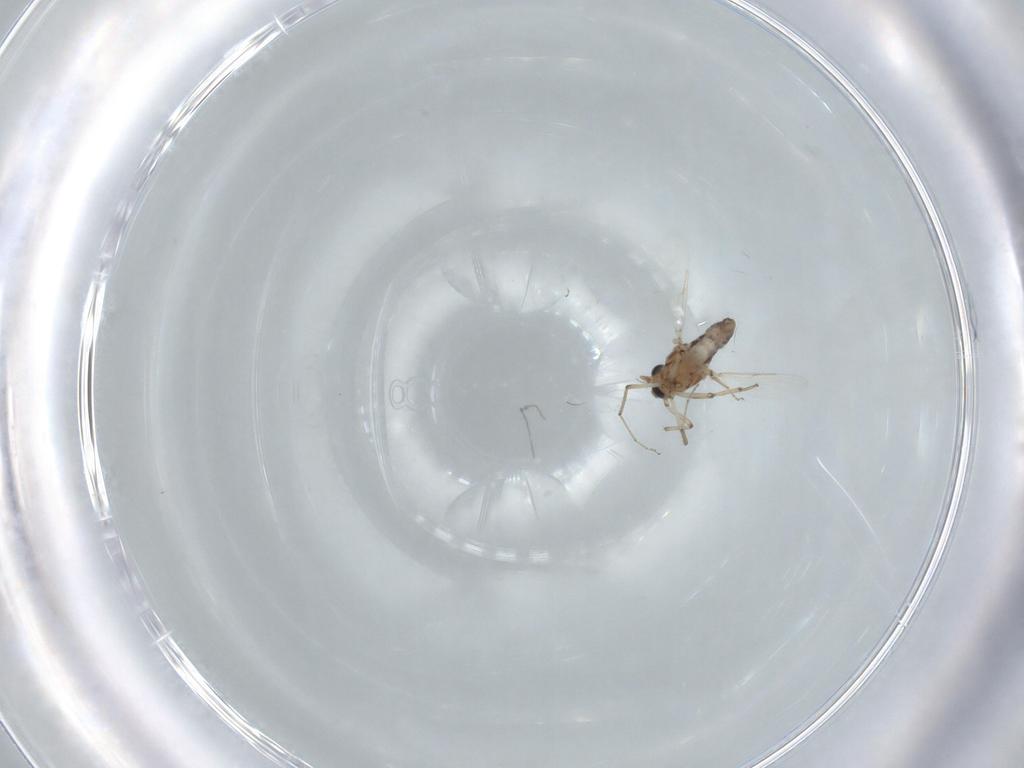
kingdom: Animalia
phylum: Arthropoda
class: Insecta
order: Diptera
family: Ceratopogonidae
